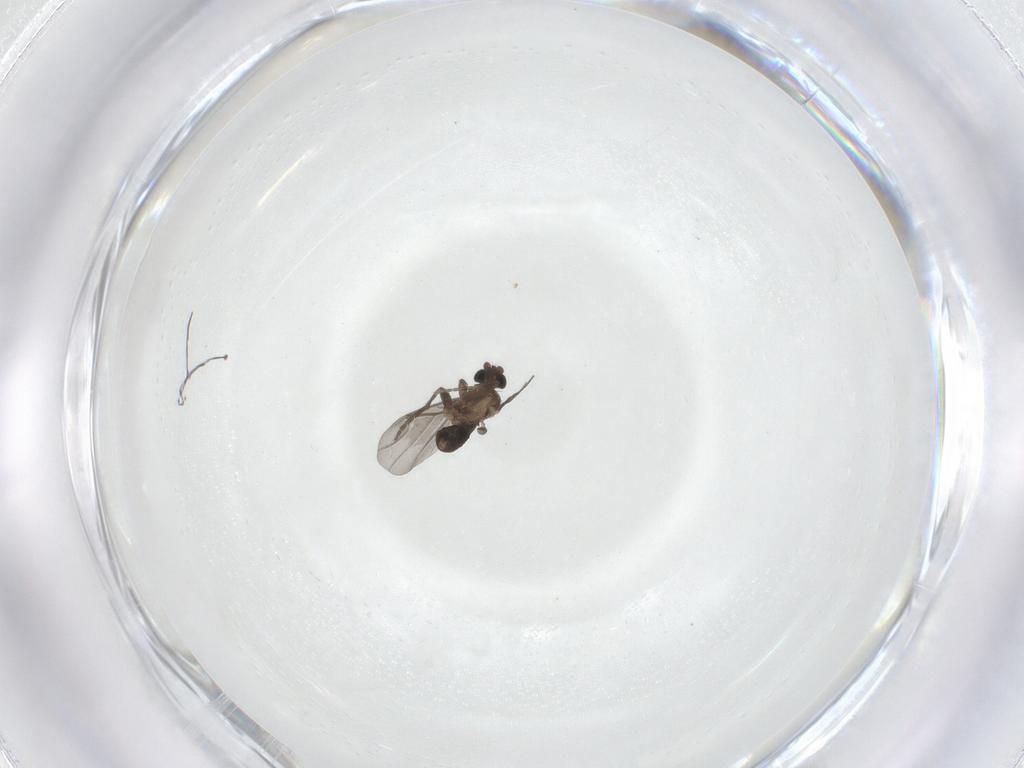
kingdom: Animalia
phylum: Arthropoda
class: Insecta
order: Diptera
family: Phoridae
